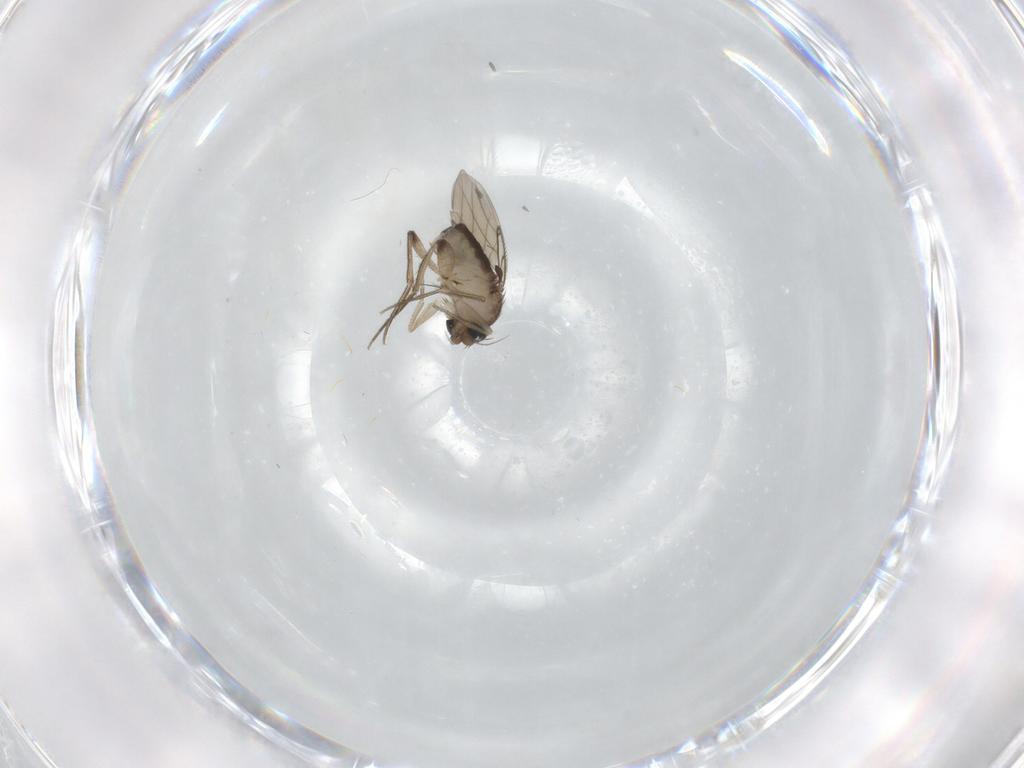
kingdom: Animalia
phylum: Arthropoda
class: Insecta
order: Diptera
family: Phoridae
